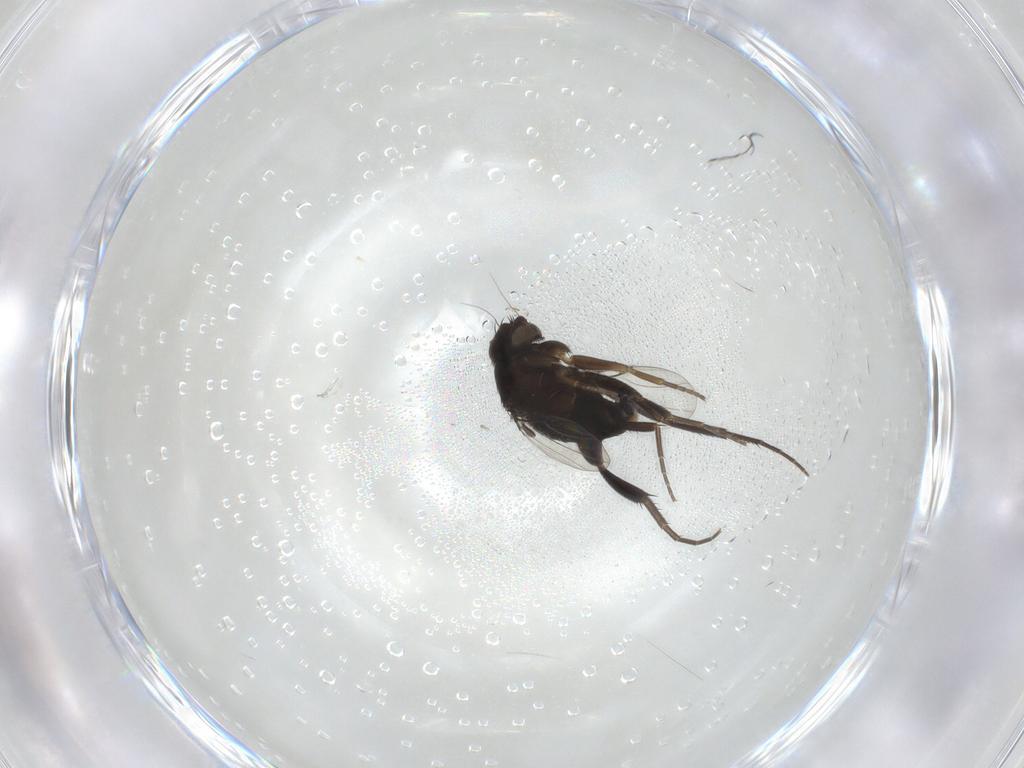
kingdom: Animalia
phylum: Arthropoda
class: Insecta
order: Diptera
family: Phoridae
